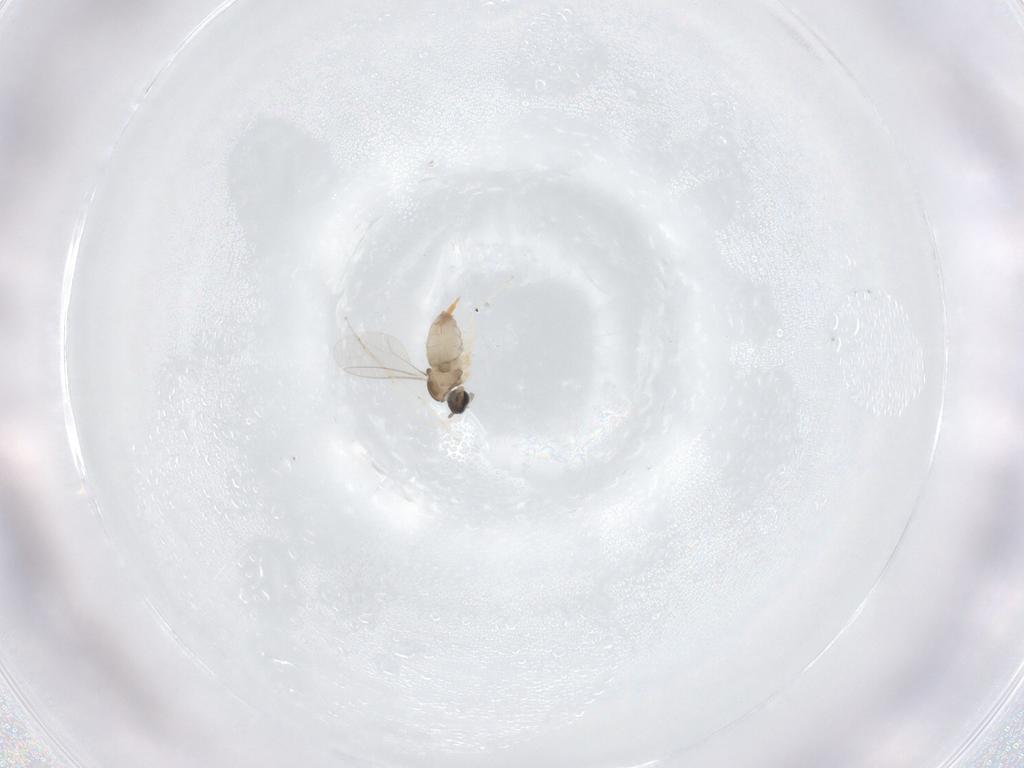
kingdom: Animalia
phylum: Arthropoda
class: Insecta
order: Diptera
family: Cecidomyiidae
